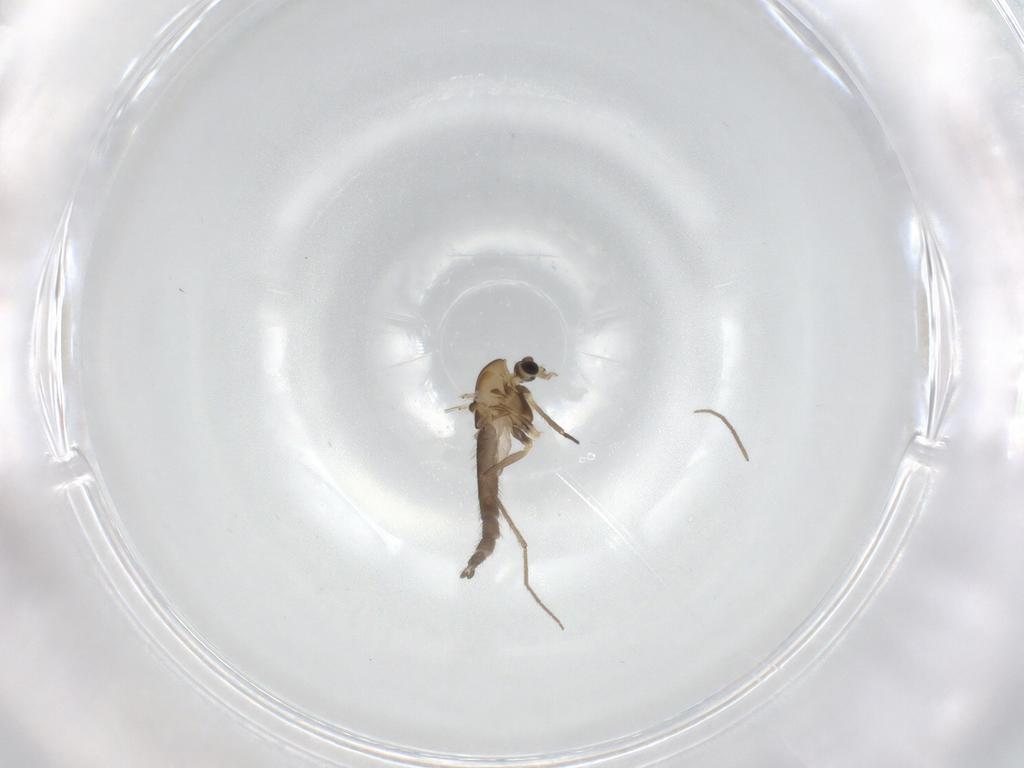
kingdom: Animalia
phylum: Arthropoda
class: Insecta
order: Diptera
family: Chironomidae
